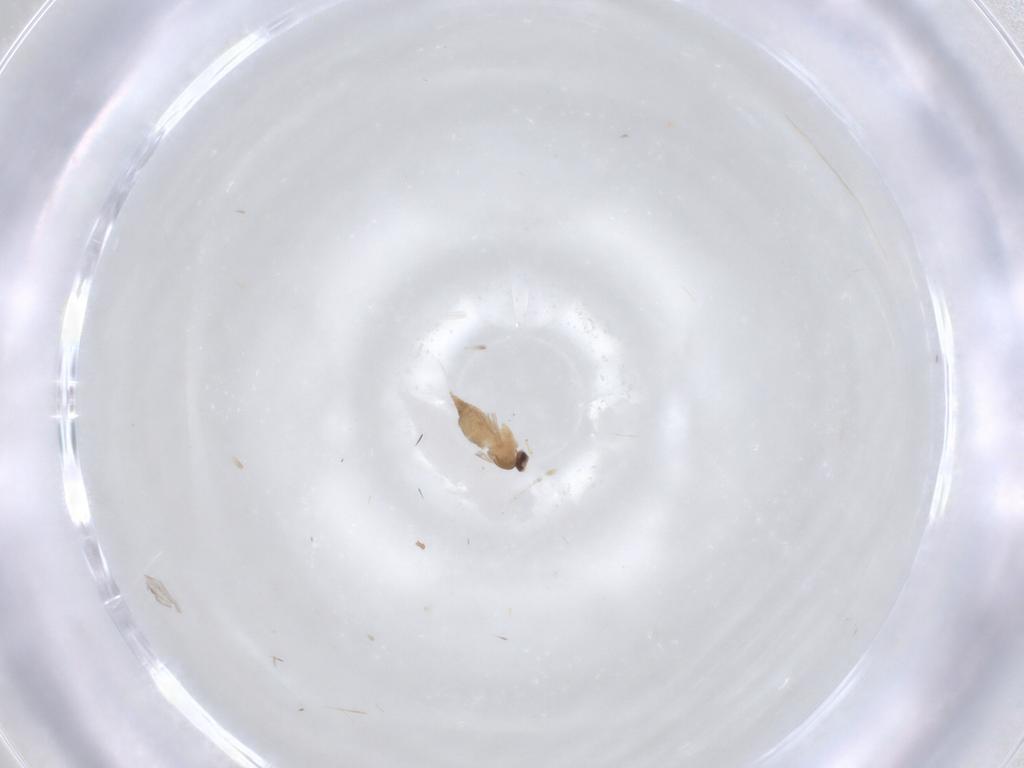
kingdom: Animalia
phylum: Arthropoda
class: Insecta
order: Diptera
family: Cecidomyiidae
